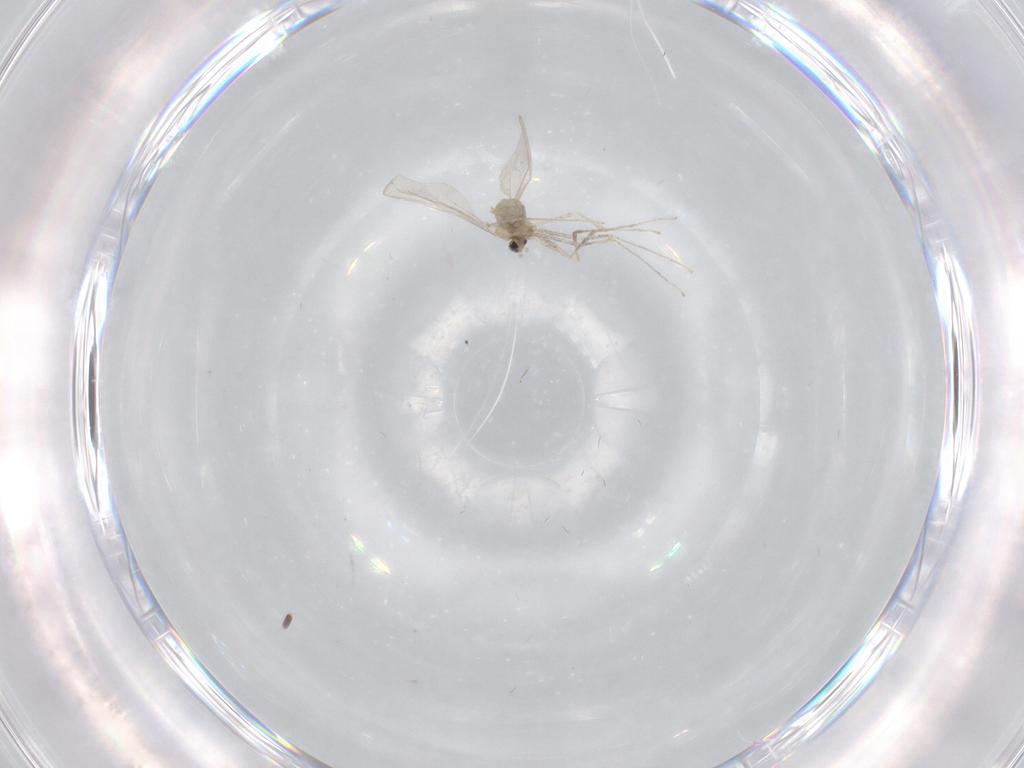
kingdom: Animalia
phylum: Arthropoda
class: Insecta
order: Diptera
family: Cecidomyiidae
